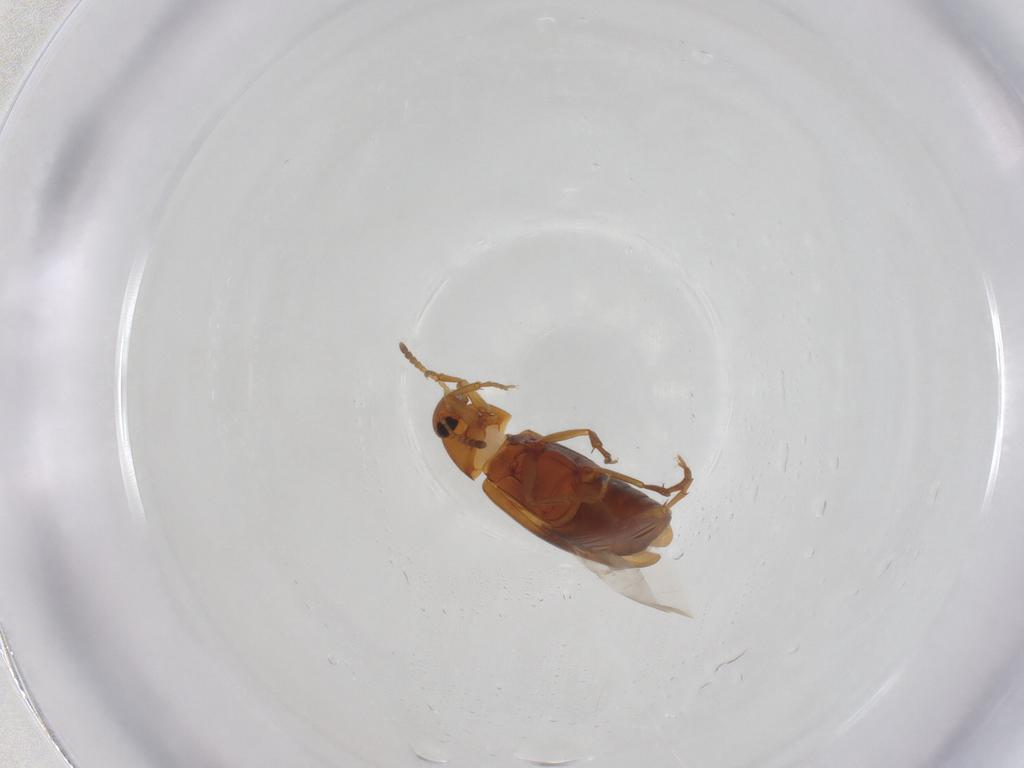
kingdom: Animalia
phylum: Arthropoda
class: Insecta
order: Coleoptera
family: Scraptiidae
